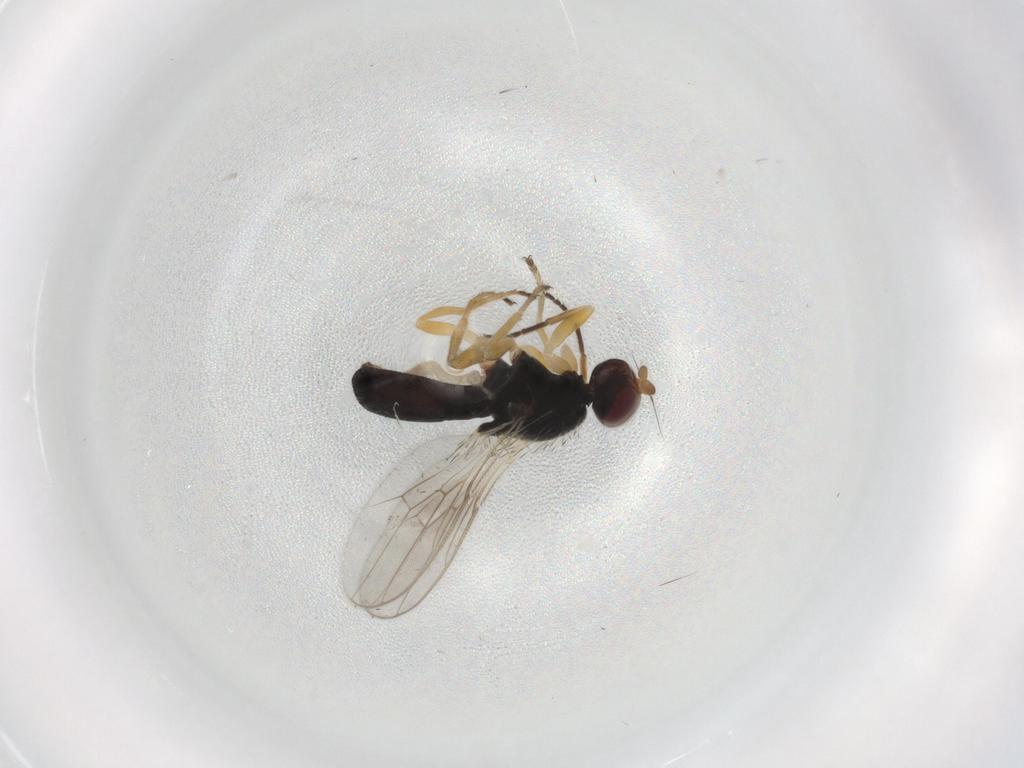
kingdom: Animalia
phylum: Arthropoda
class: Insecta
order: Diptera
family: Chloropidae
